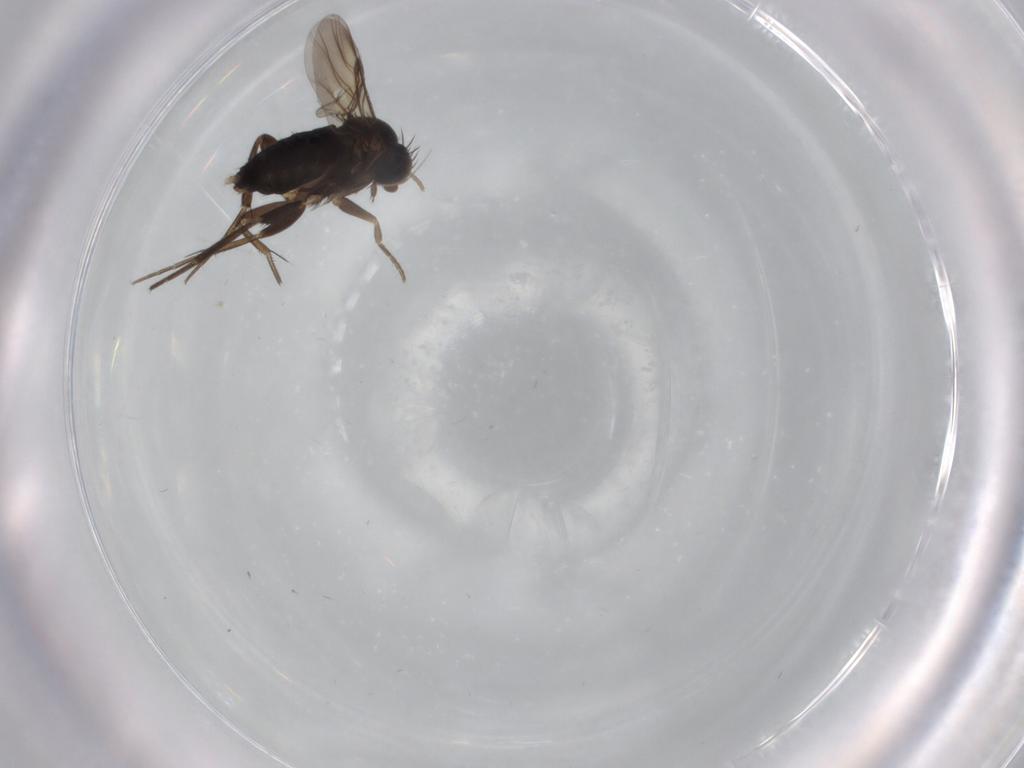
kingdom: Animalia
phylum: Arthropoda
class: Insecta
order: Diptera
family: Phoridae
